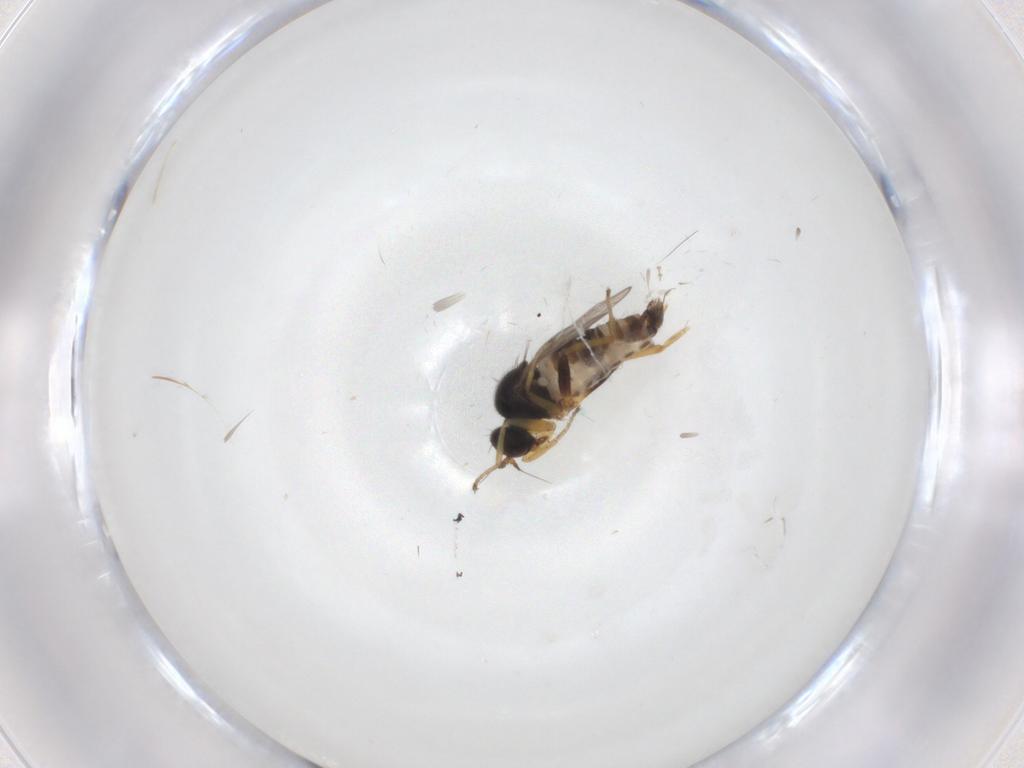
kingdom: Animalia
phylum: Arthropoda
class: Insecta
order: Diptera
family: Hybotidae
